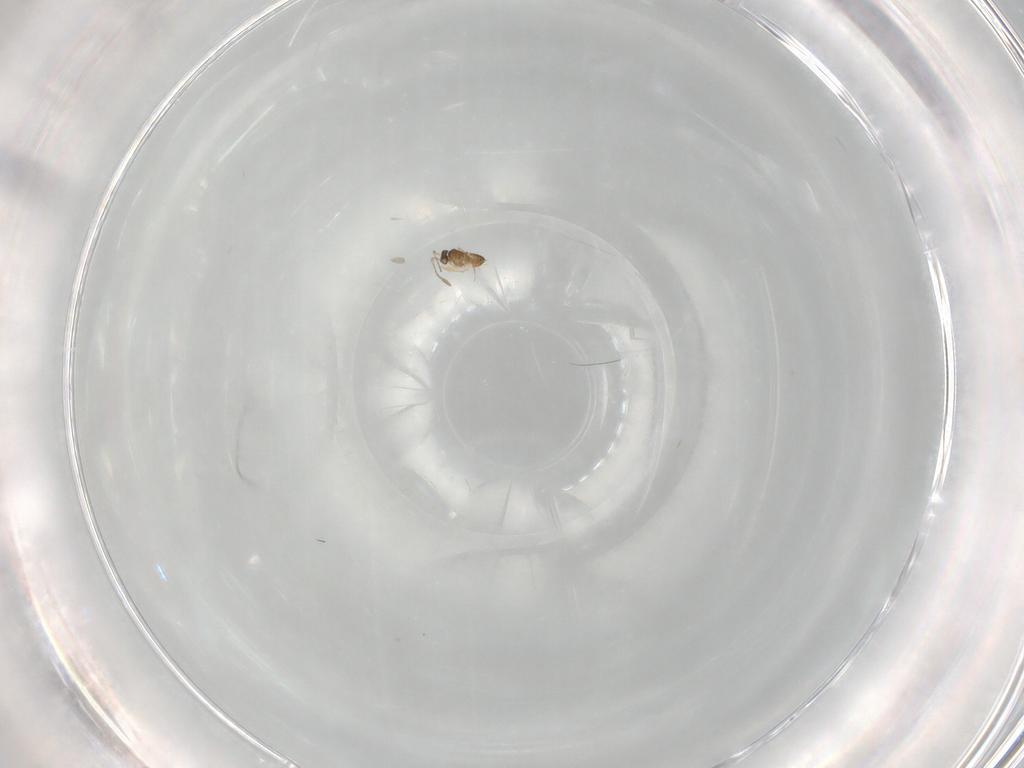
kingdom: Animalia
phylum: Arthropoda
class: Insecta
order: Hymenoptera
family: Mymaridae
